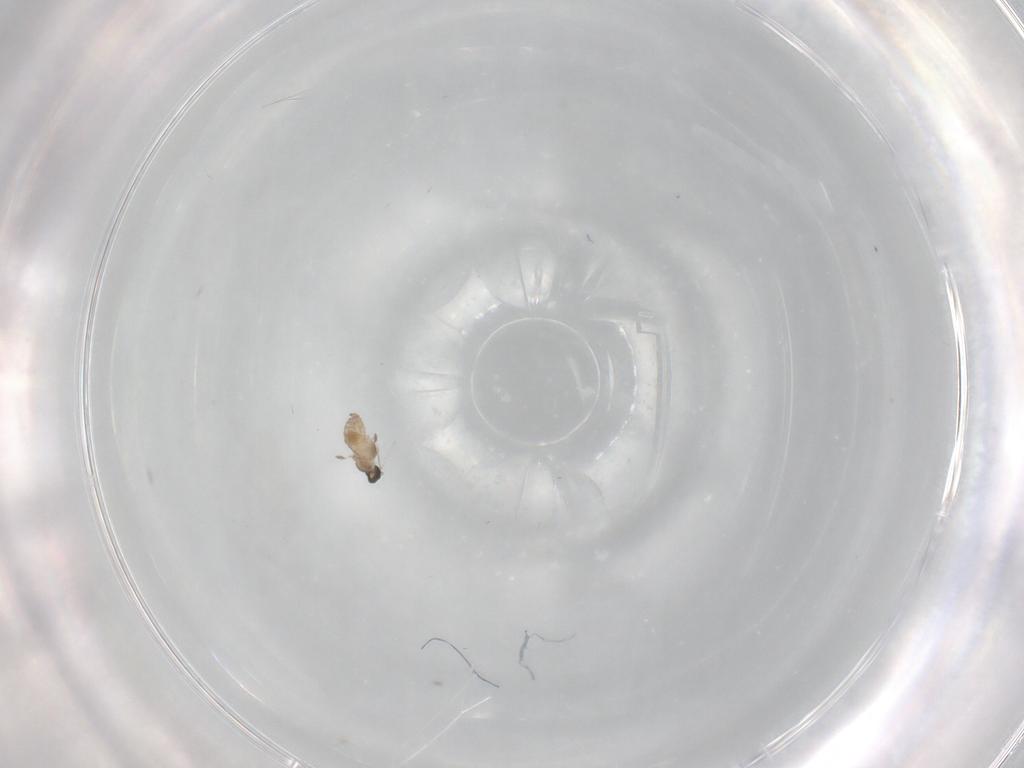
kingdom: Animalia
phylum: Arthropoda
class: Insecta
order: Diptera
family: Cecidomyiidae
